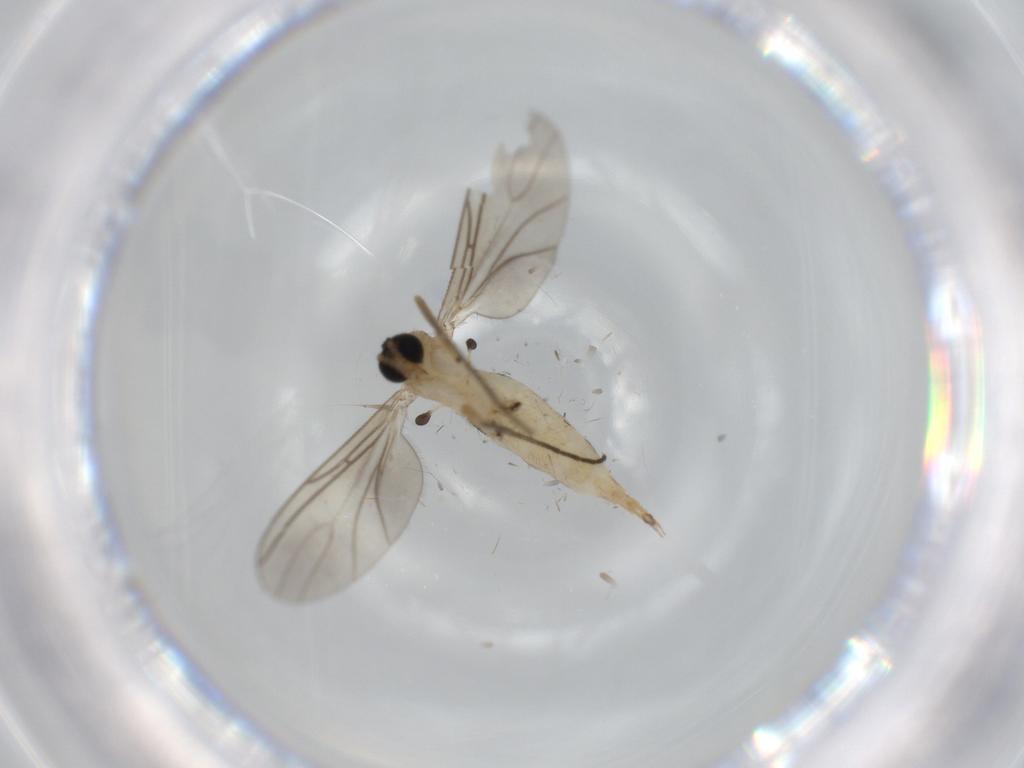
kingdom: Animalia
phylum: Arthropoda
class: Insecta
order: Diptera
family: Sciaridae
